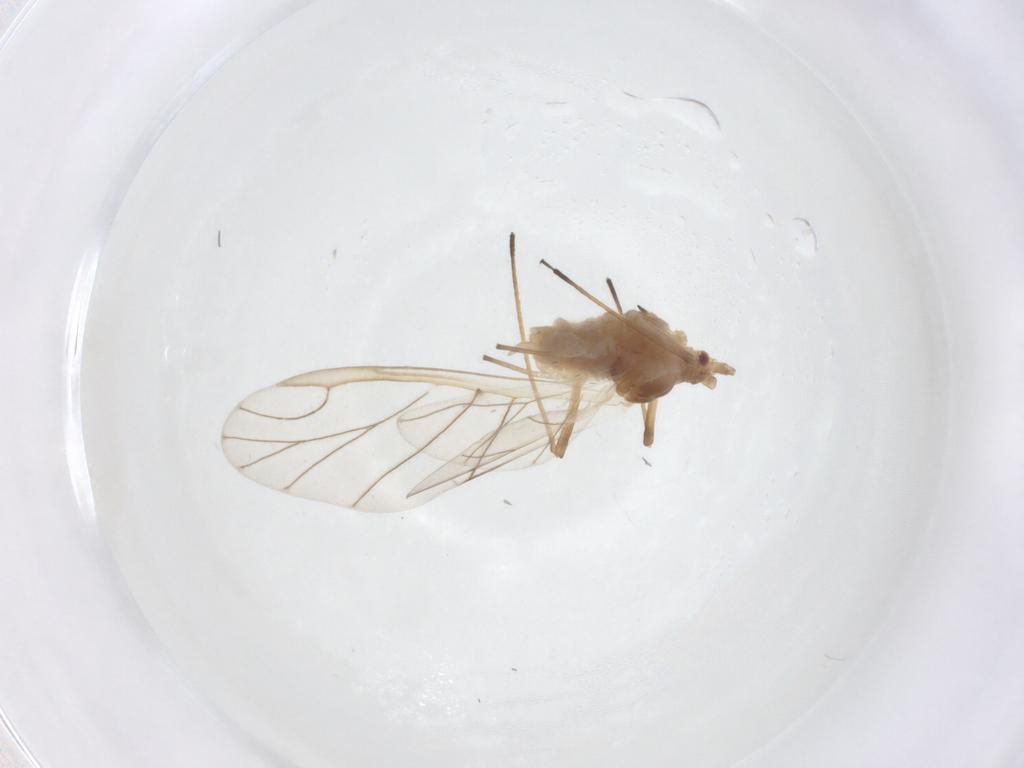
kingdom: Animalia
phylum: Arthropoda
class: Insecta
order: Hemiptera
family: Aphididae
